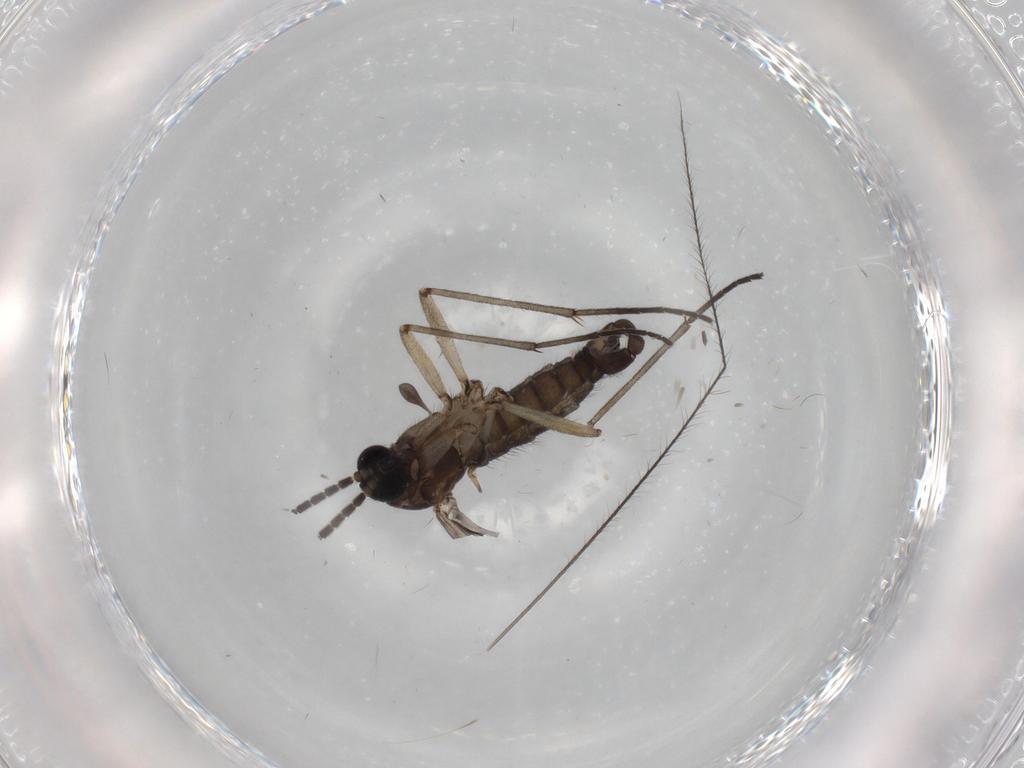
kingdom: Animalia
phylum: Arthropoda
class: Insecta
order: Diptera
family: Sciaridae
